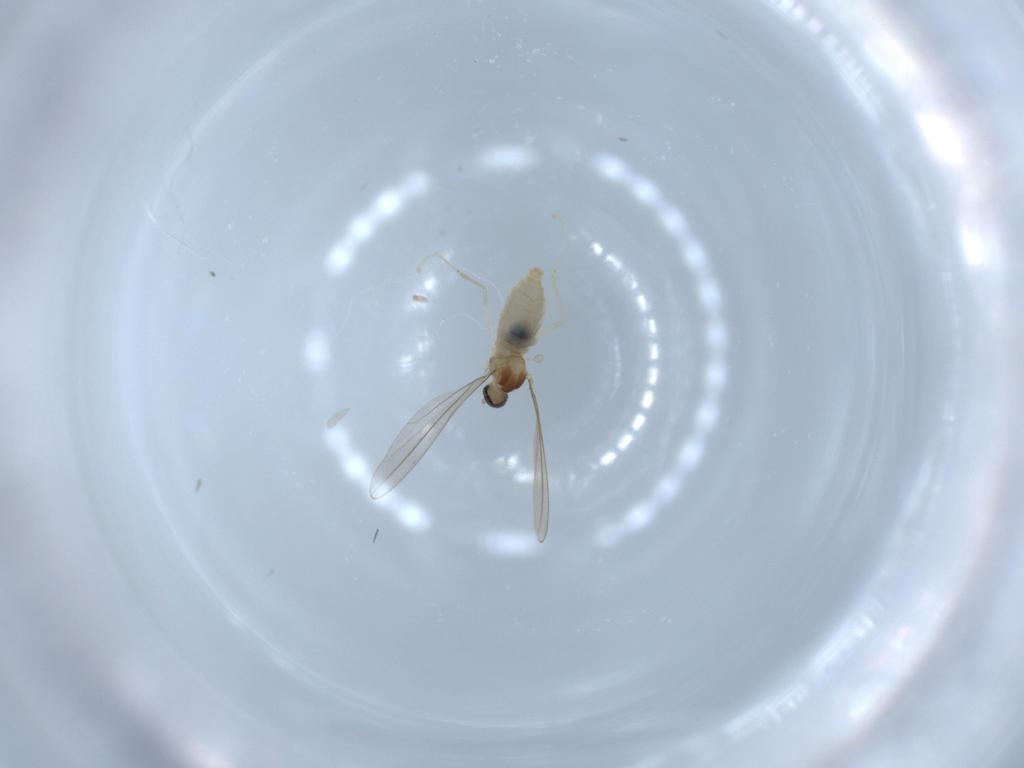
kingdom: Animalia
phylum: Arthropoda
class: Insecta
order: Diptera
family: Cecidomyiidae
